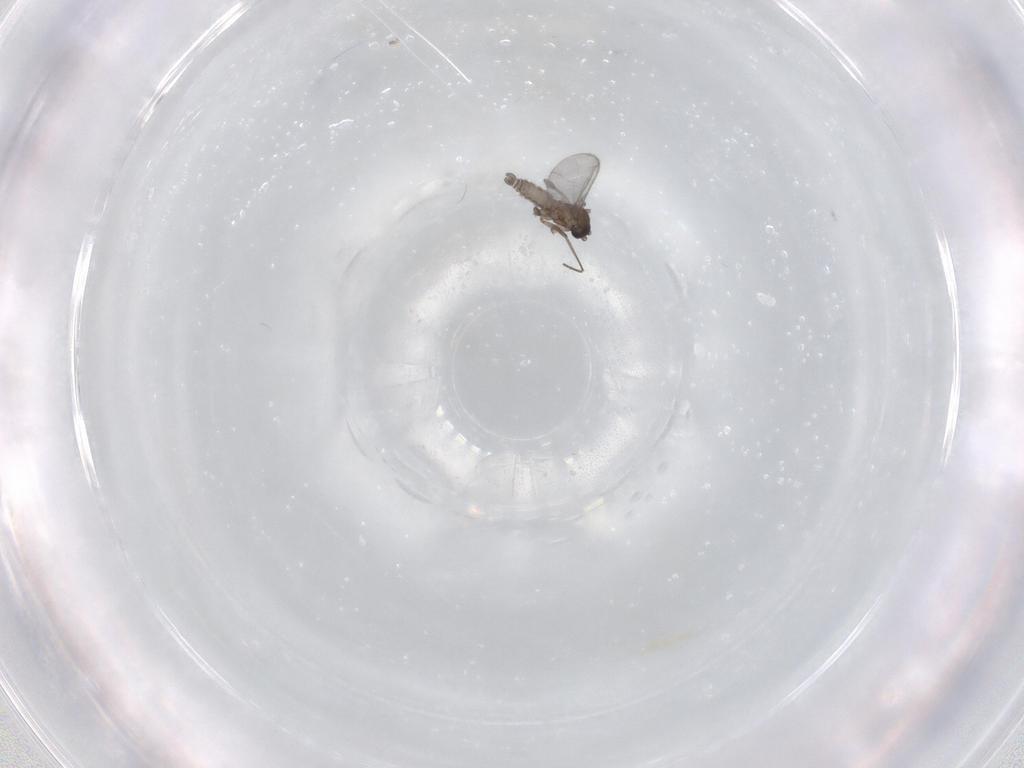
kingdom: Animalia
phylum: Arthropoda
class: Insecta
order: Diptera
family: Sciaridae
